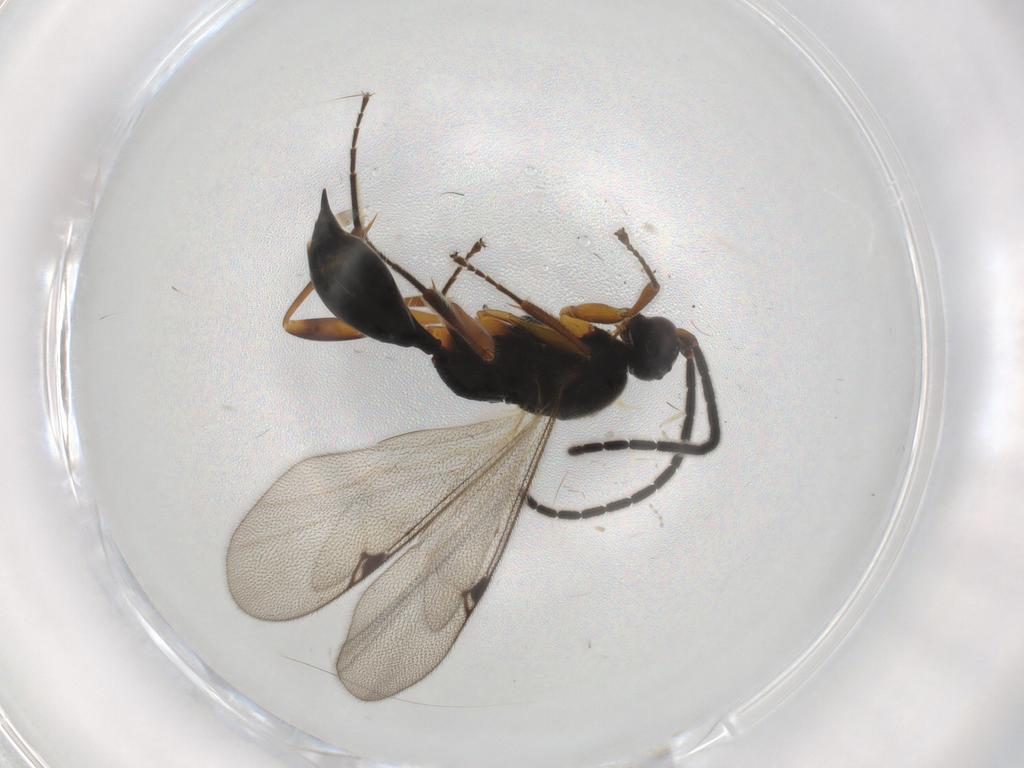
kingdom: Animalia
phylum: Arthropoda
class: Insecta
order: Hymenoptera
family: Proctotrupidae
